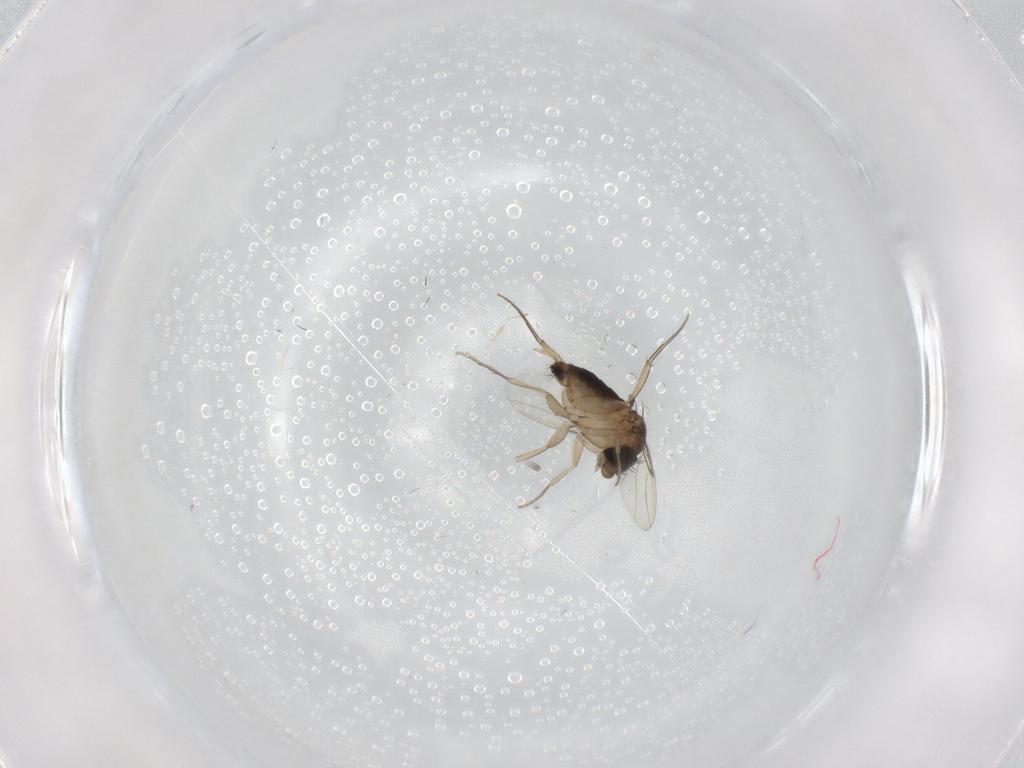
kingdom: Animalia
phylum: Arthropoda
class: Insecta
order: Diptera
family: Phoridae
